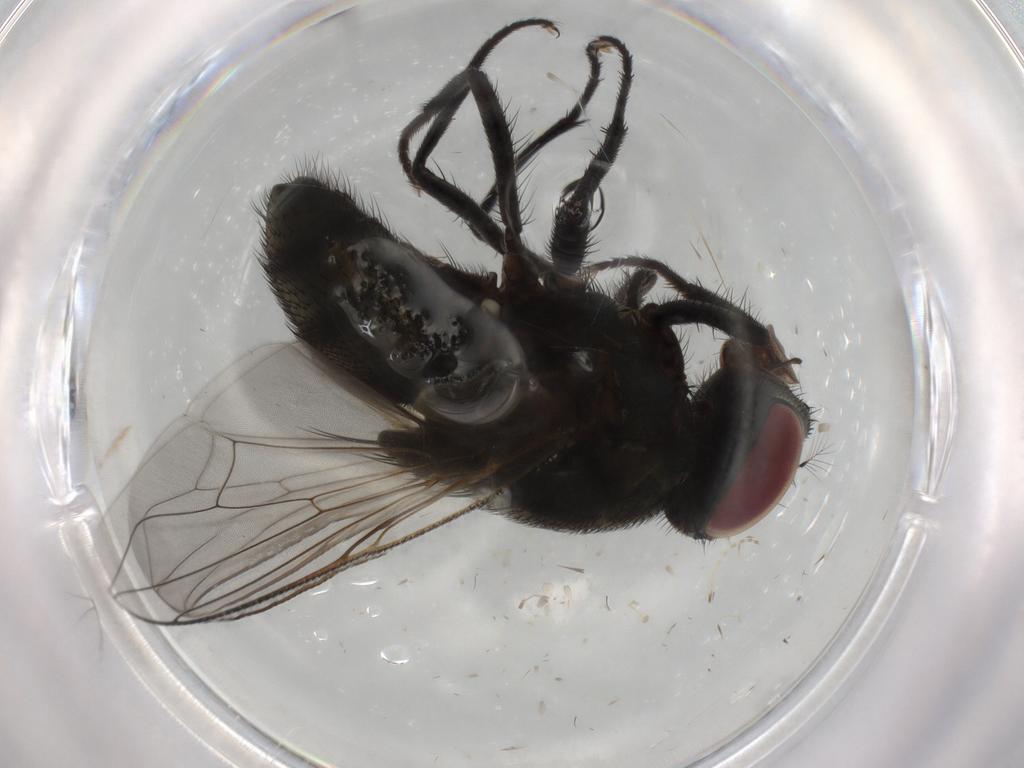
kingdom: Animalia
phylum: Arthropoda
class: Insecta
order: Diptera
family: Muscidae
